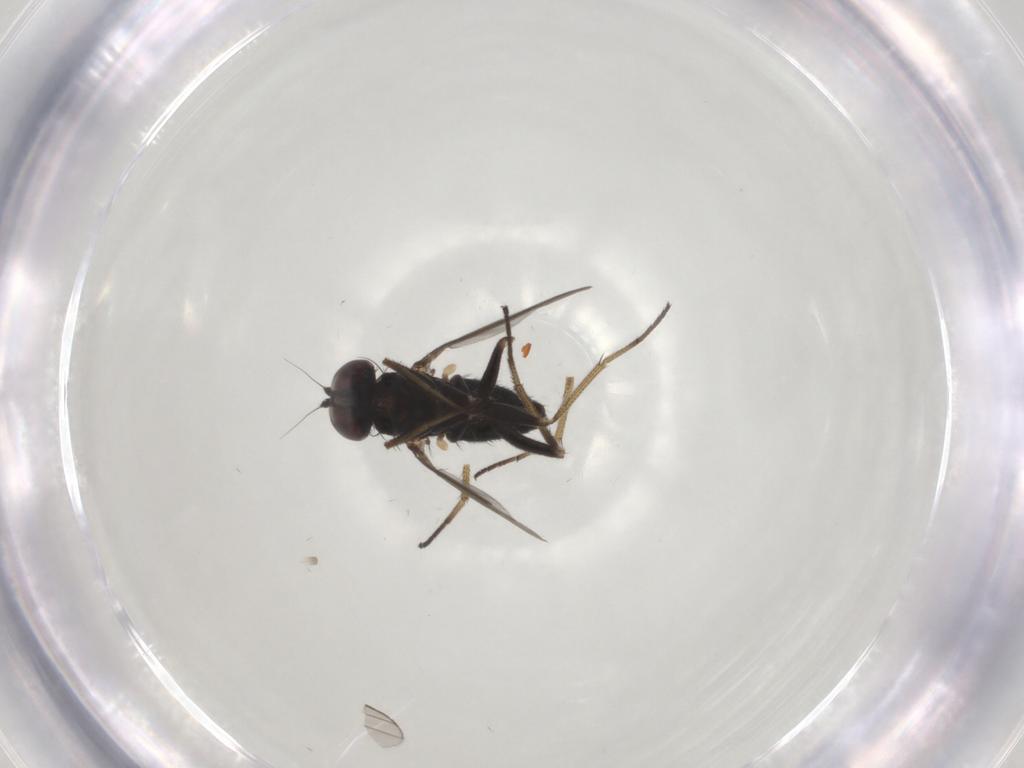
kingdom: Animalia
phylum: Arthropoda
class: Insecta
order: Diptera
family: Dolichopodidae
